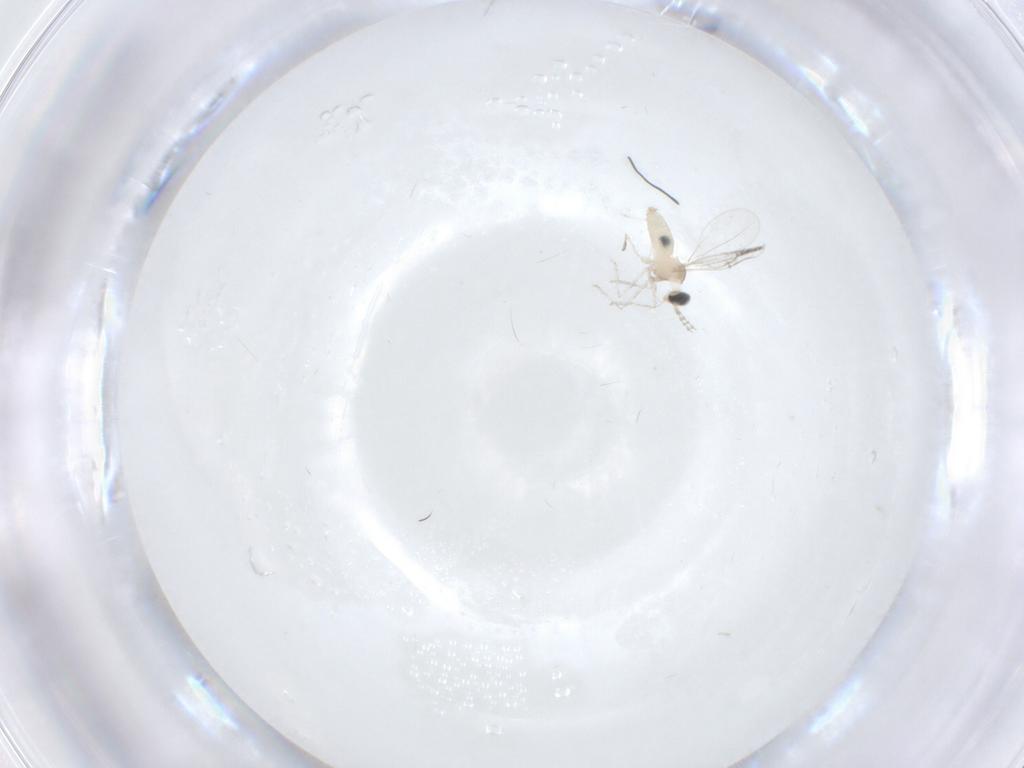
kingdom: Animalia
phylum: Arthropoda
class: Insecta
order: Diptera
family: Cecidomyiidae
